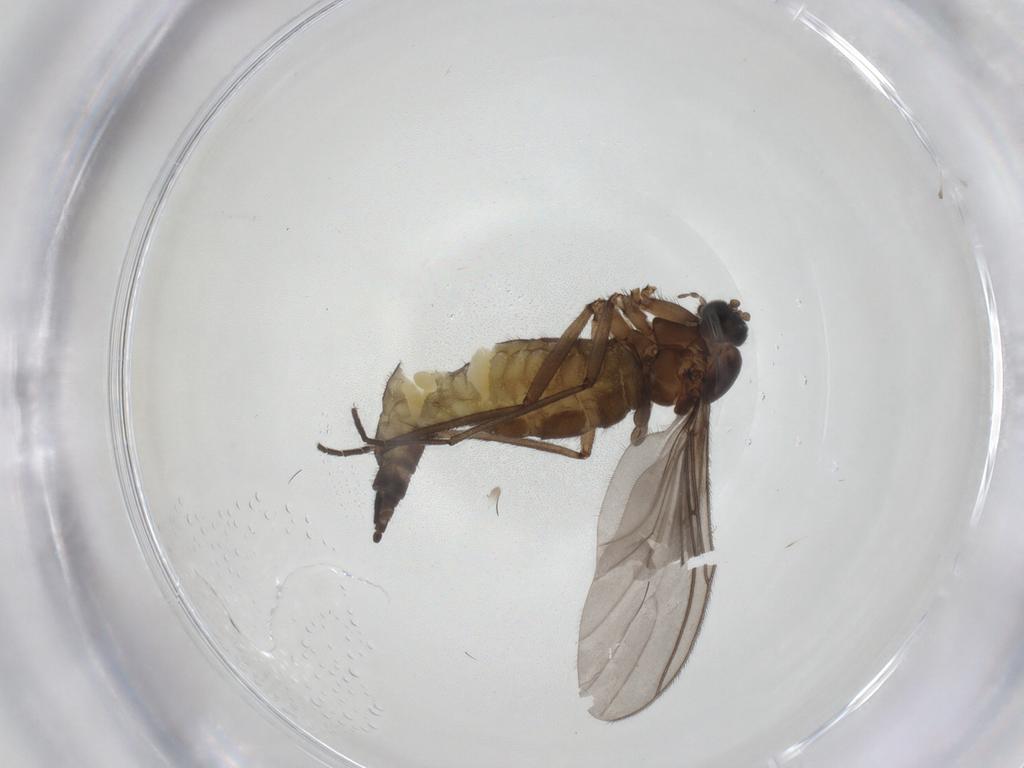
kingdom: Animalia
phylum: Arthropoda
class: Insecta
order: Diptera
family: Sciaridae
